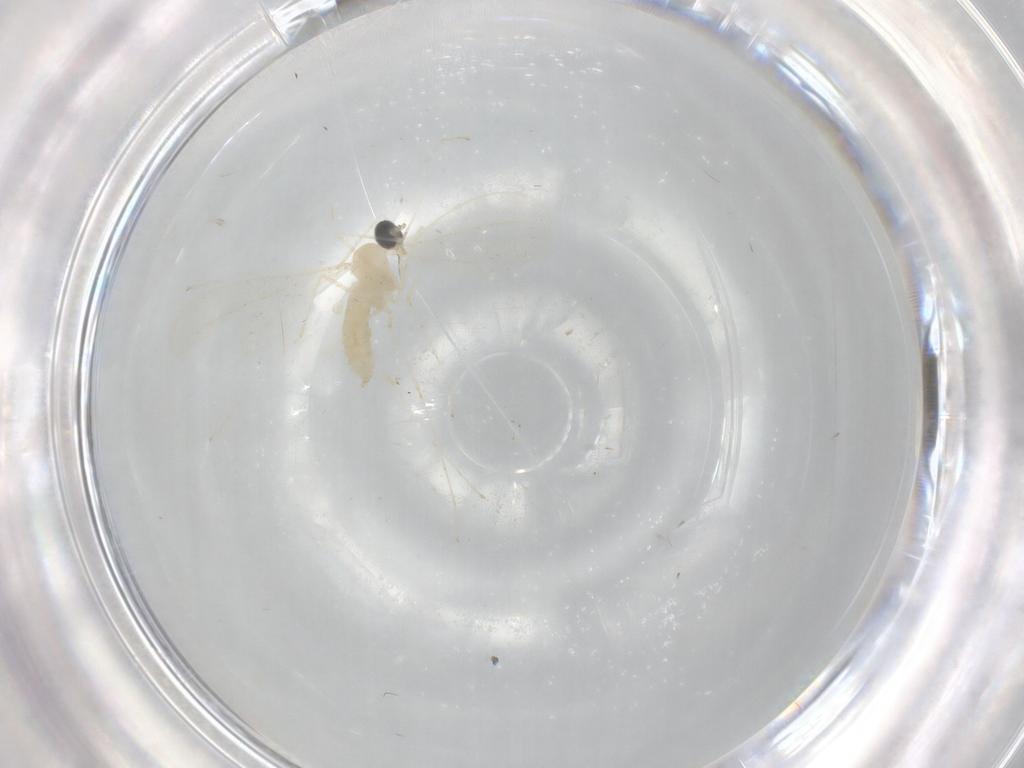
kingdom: Animalia
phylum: Arthropoda
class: Insecta
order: Diptera
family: Cecidomyiidae
